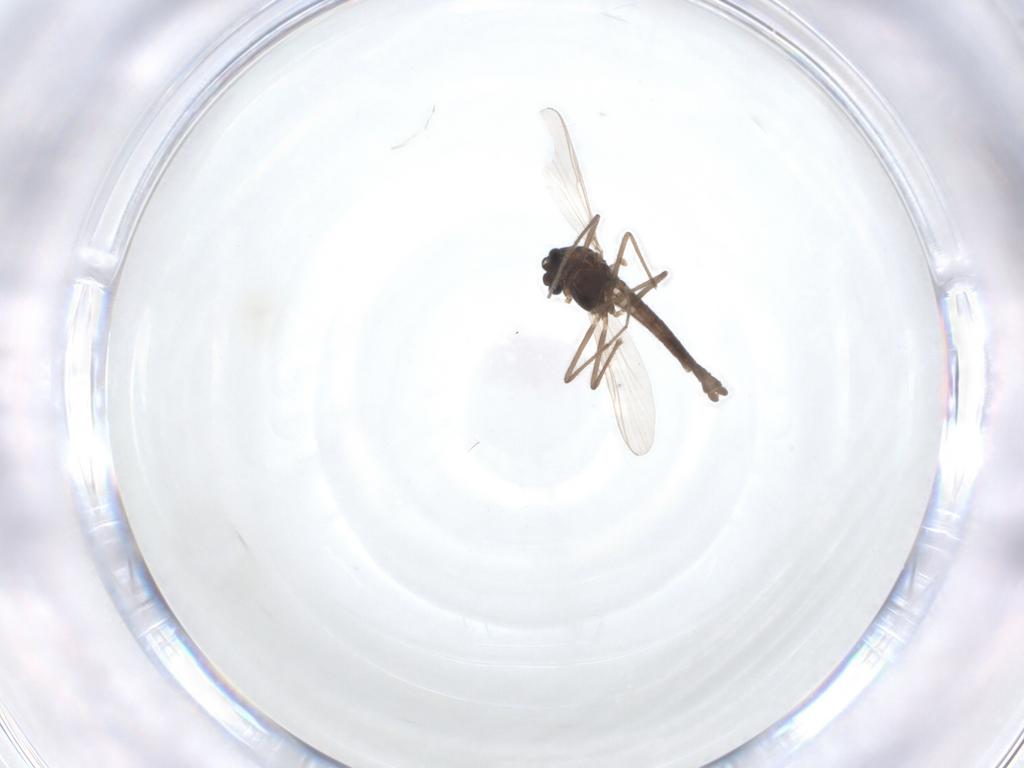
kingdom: Animalia
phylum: Arthropoda
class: Insecta
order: Diptera
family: Chironomidae
